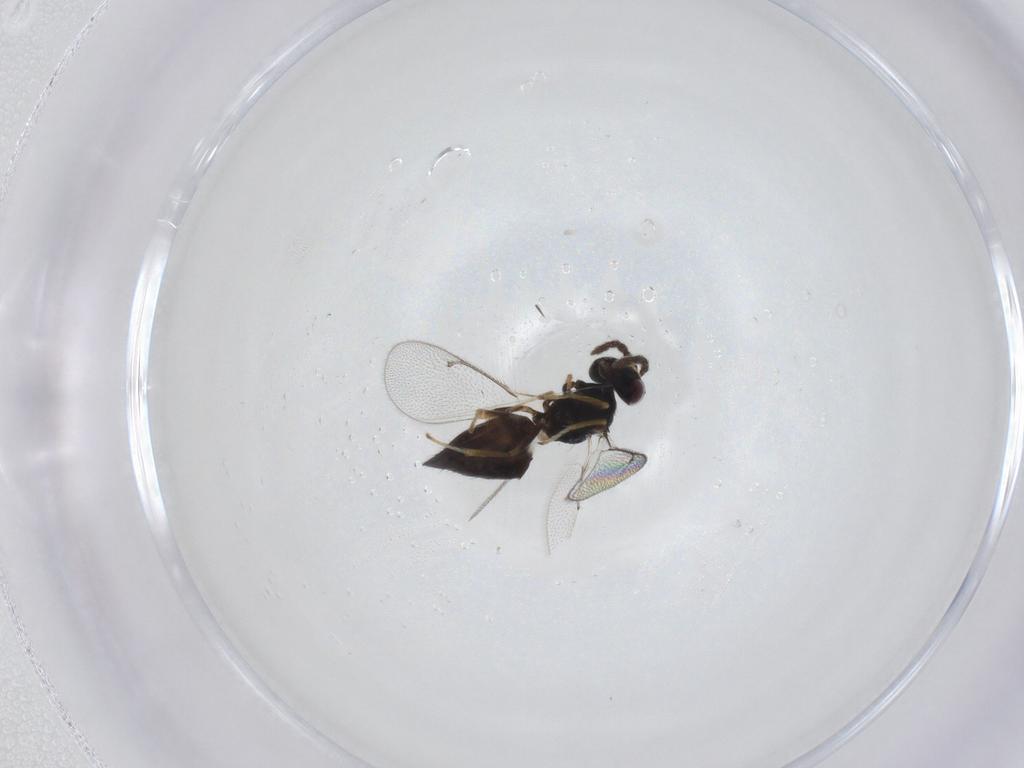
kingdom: Animalia
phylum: Arthropoda
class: Insecta
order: Hymenoptera
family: Eulophidae
